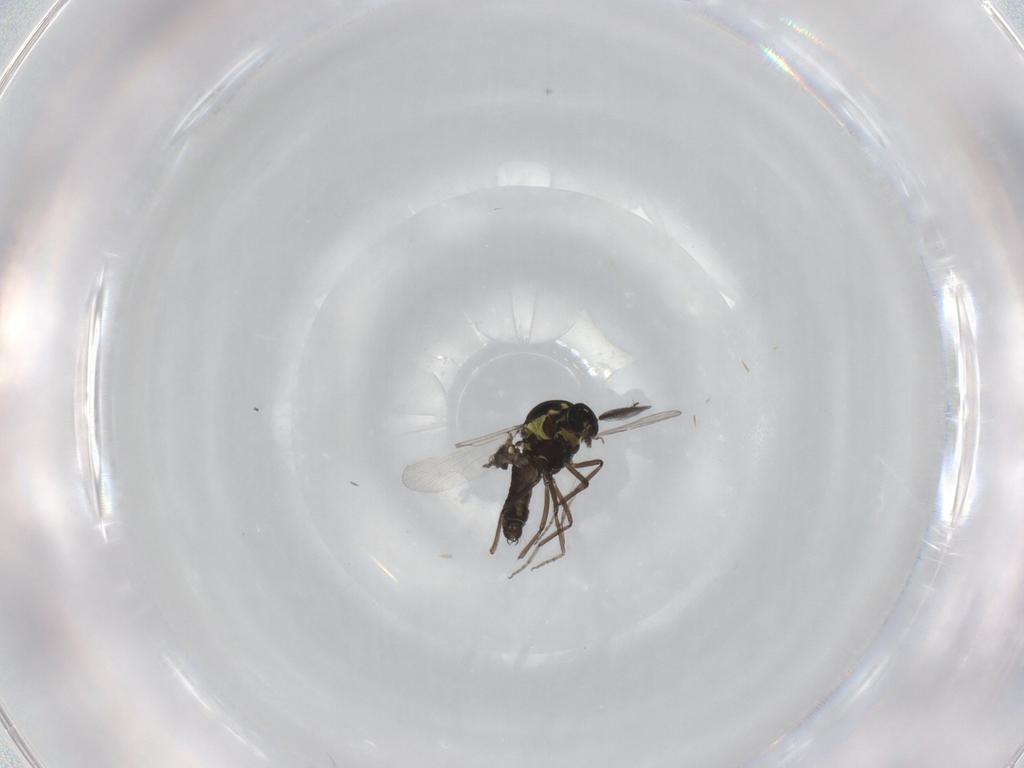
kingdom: Animalia
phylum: Arthropoda
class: Insecta
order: Diptera
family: Ceratopogonidae
